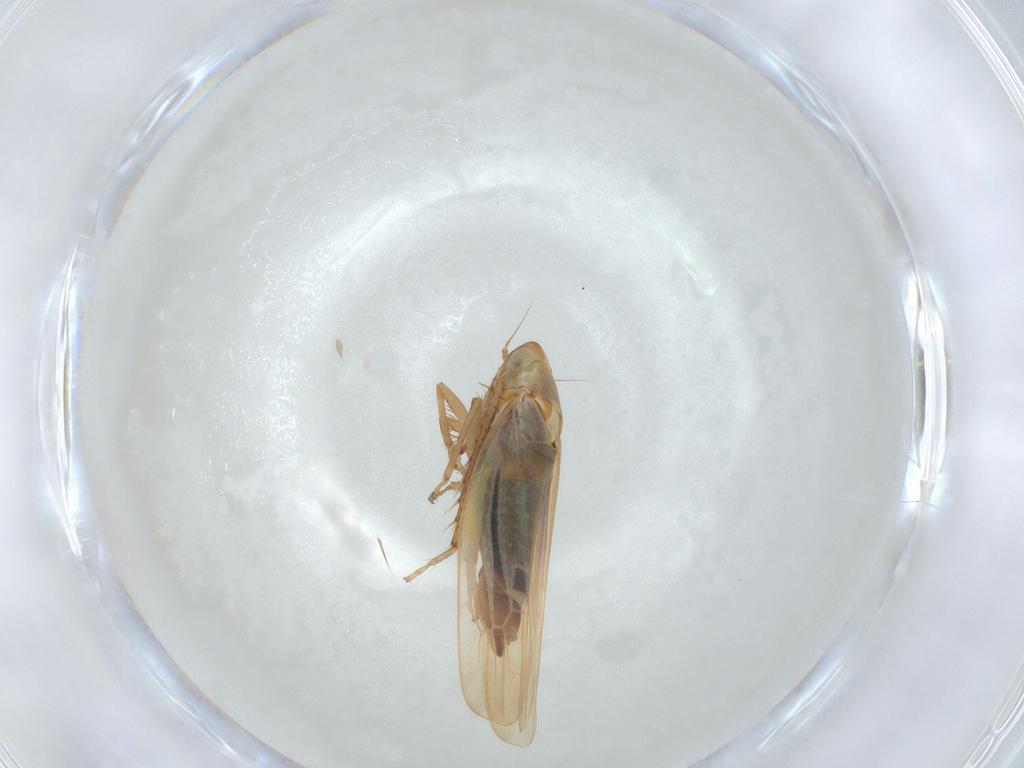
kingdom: Animalia
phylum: Arthropoda
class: Insecta
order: Hemiptera
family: Cicadellidae
